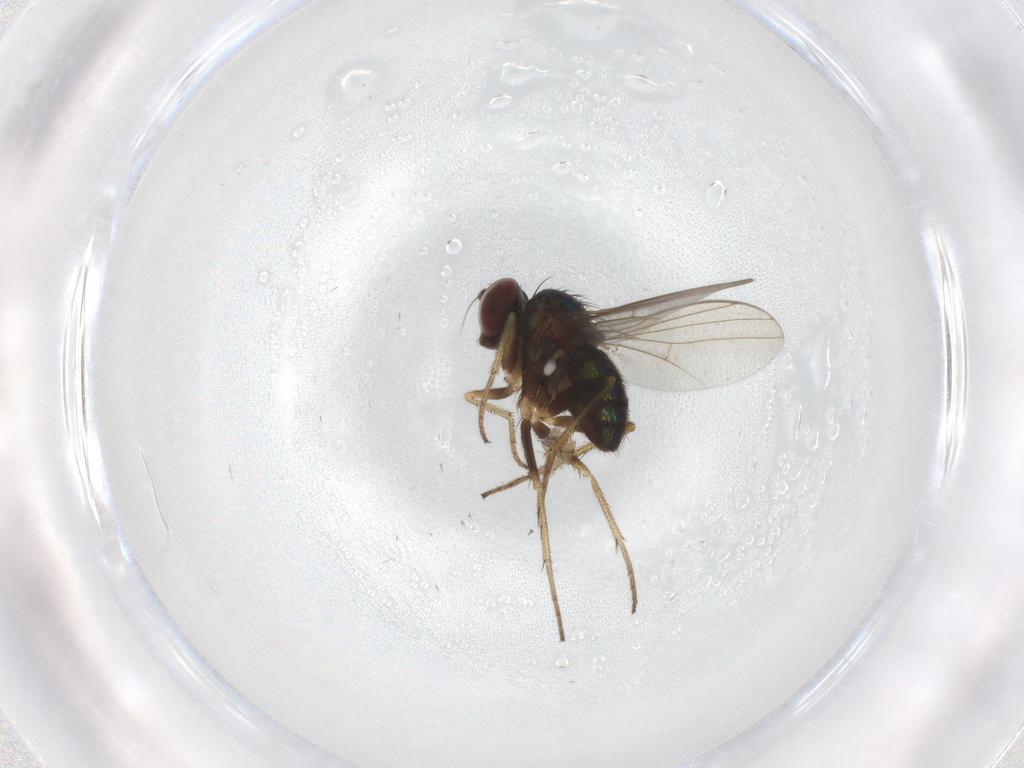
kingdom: Animalia
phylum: Arthropoda
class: Insecta
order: Diptera
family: Dolichopodidae
